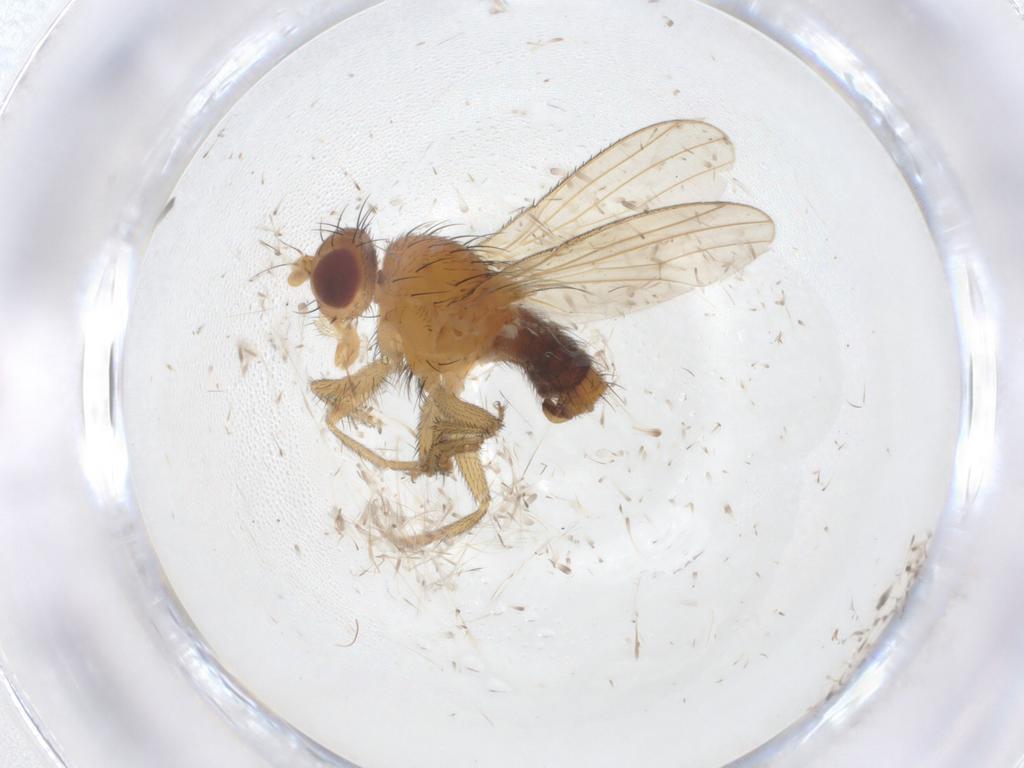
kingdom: Animalia
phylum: Arthropoda
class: Insecta
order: Diptera
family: Heleomyzidae
